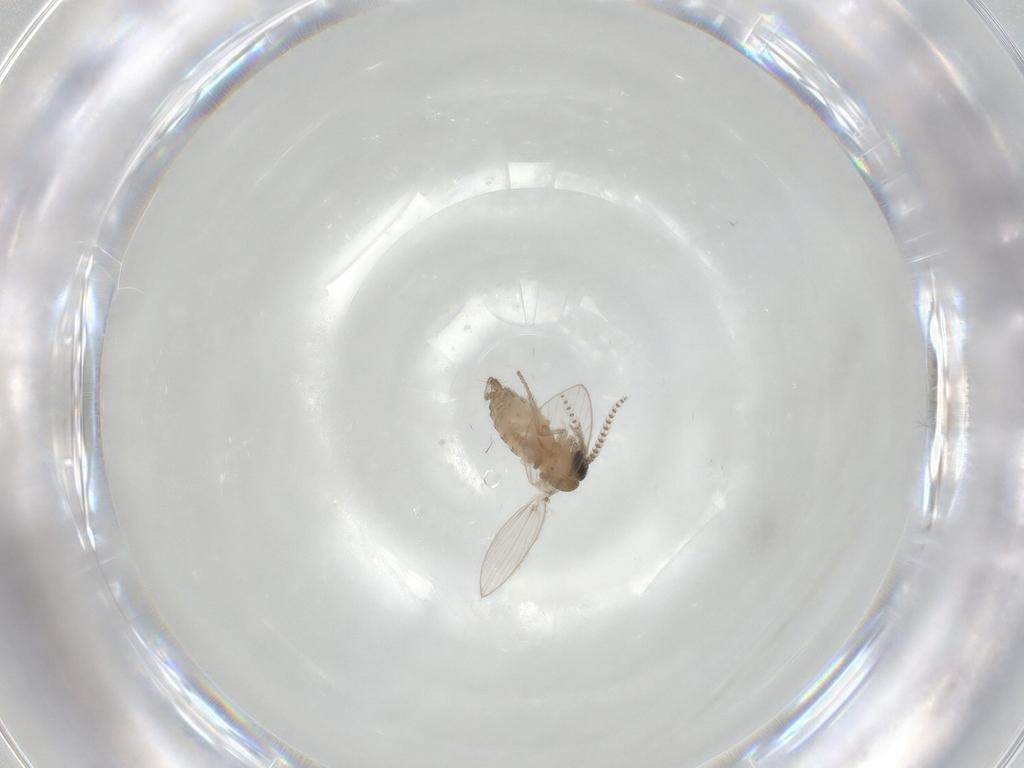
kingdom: Animalia
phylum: Arthropoda
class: Insecta
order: Diptera
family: Psychodidae
